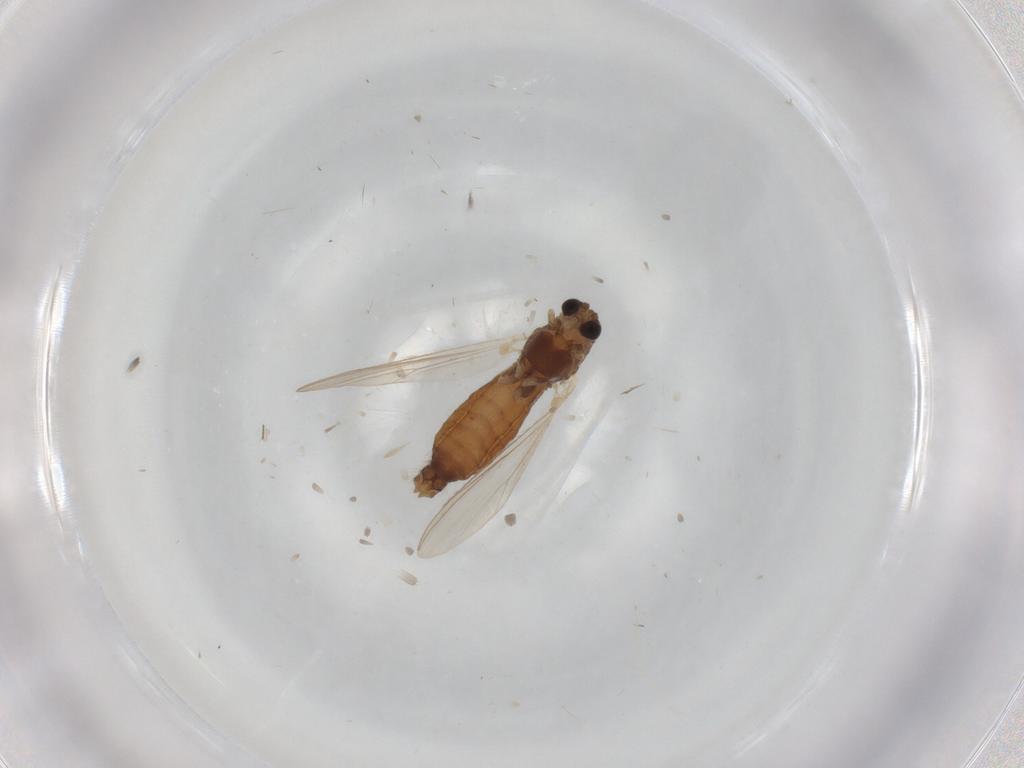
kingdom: Animalia
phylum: Arthropoda
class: Insecta
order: Diptera
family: Chironomidae
